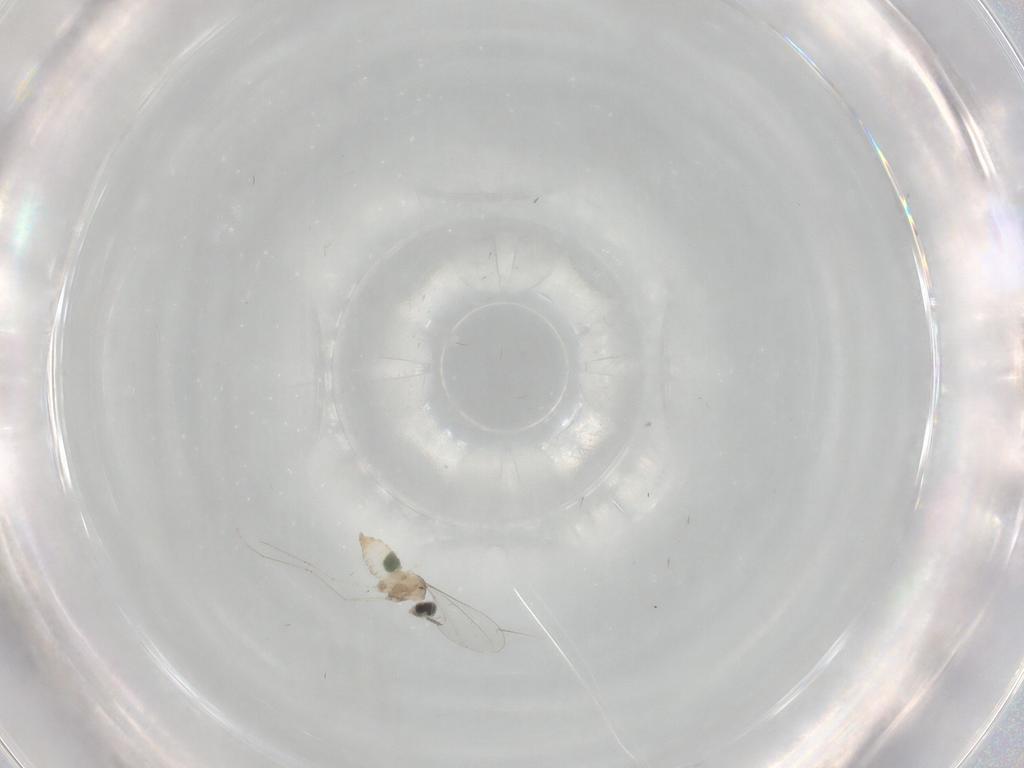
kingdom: Animalia
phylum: Arthropoda
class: Insecta
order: Diptera
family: Cecidomyiidae
